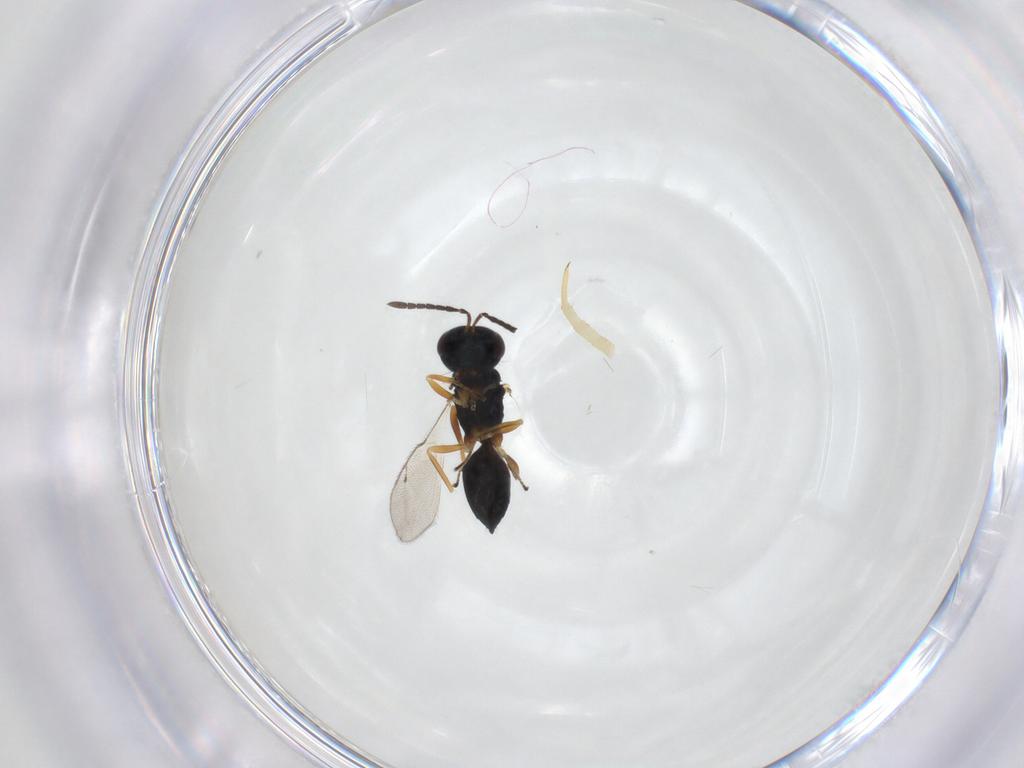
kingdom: Animalia
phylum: Arthropoda
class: Insecta
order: Hymenoptera
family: Pteromalidae
